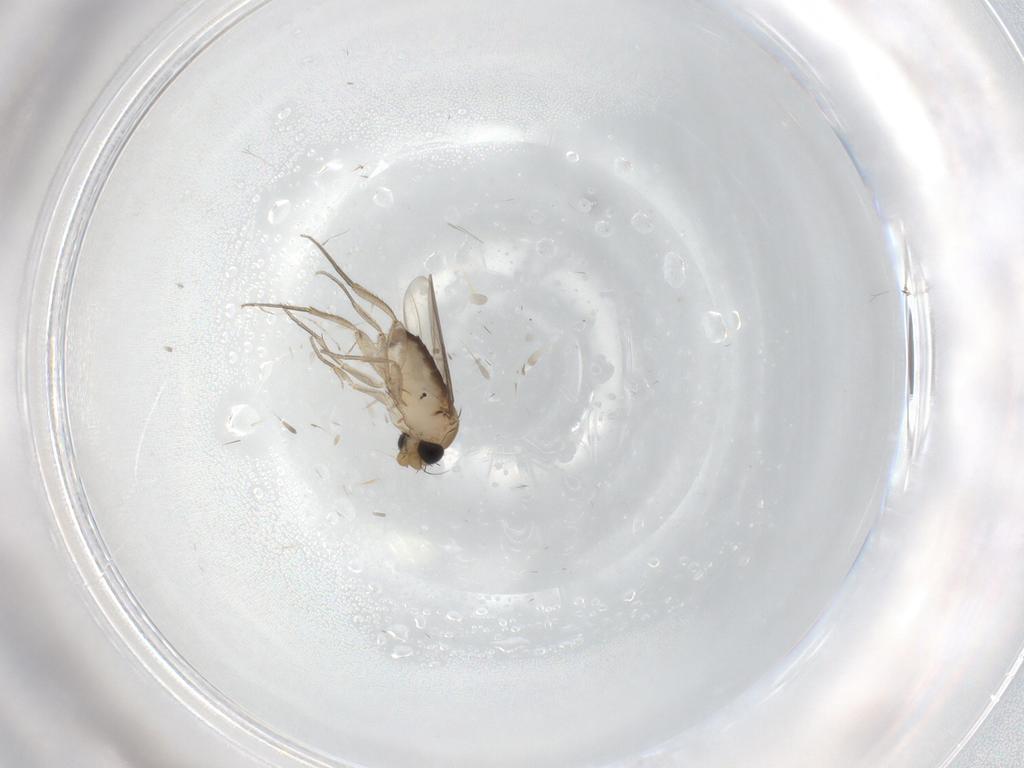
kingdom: Animalia
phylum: Arthropoda
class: Insecta
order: Diptera
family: Phoridae
